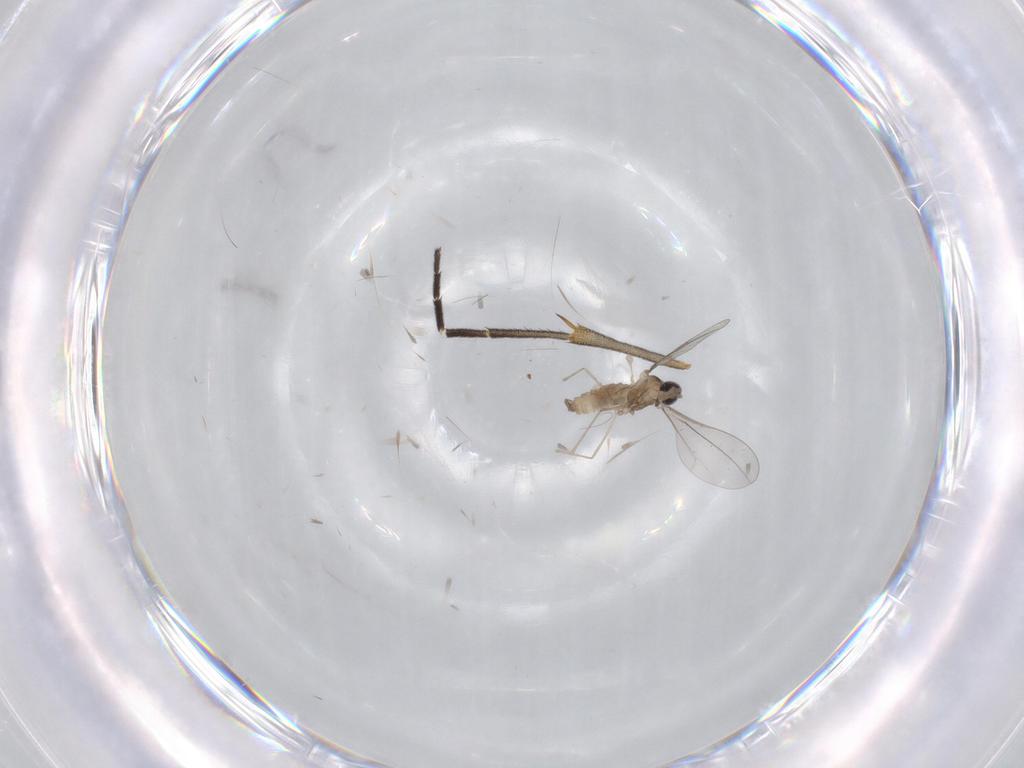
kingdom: Animalia
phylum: Arthropoda
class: Insecta
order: Diptera
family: Cecidomyiidae
